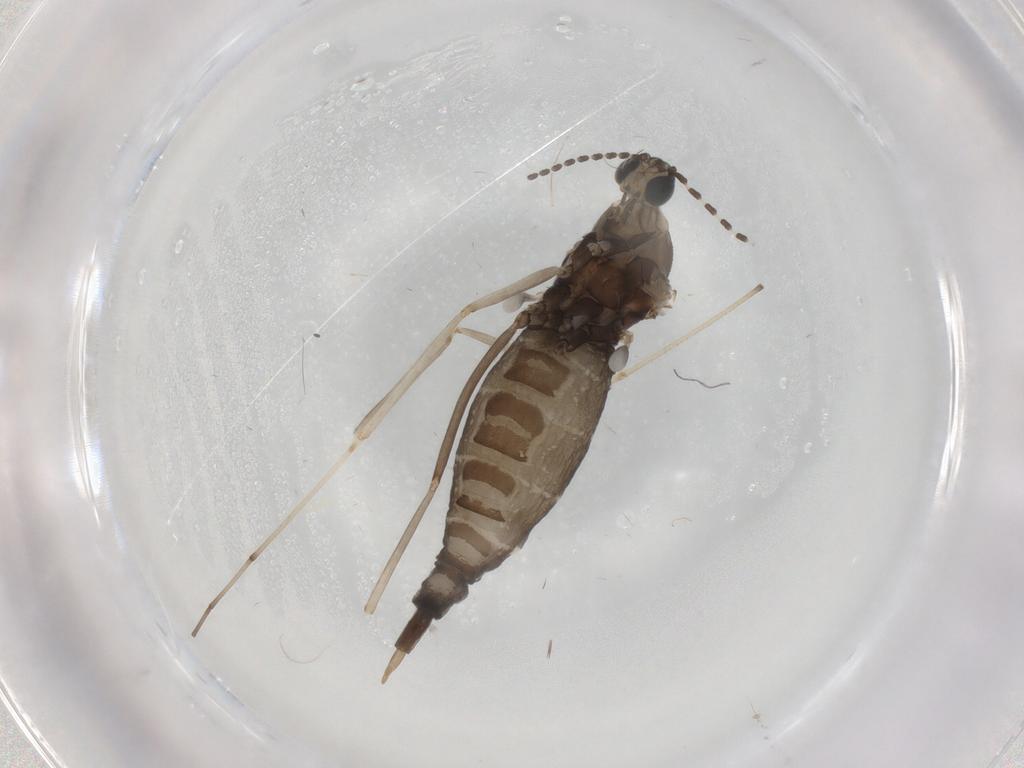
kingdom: Animalia
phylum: Arthropoda
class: Insecta
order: Diptera
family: Cecidomyiidae
